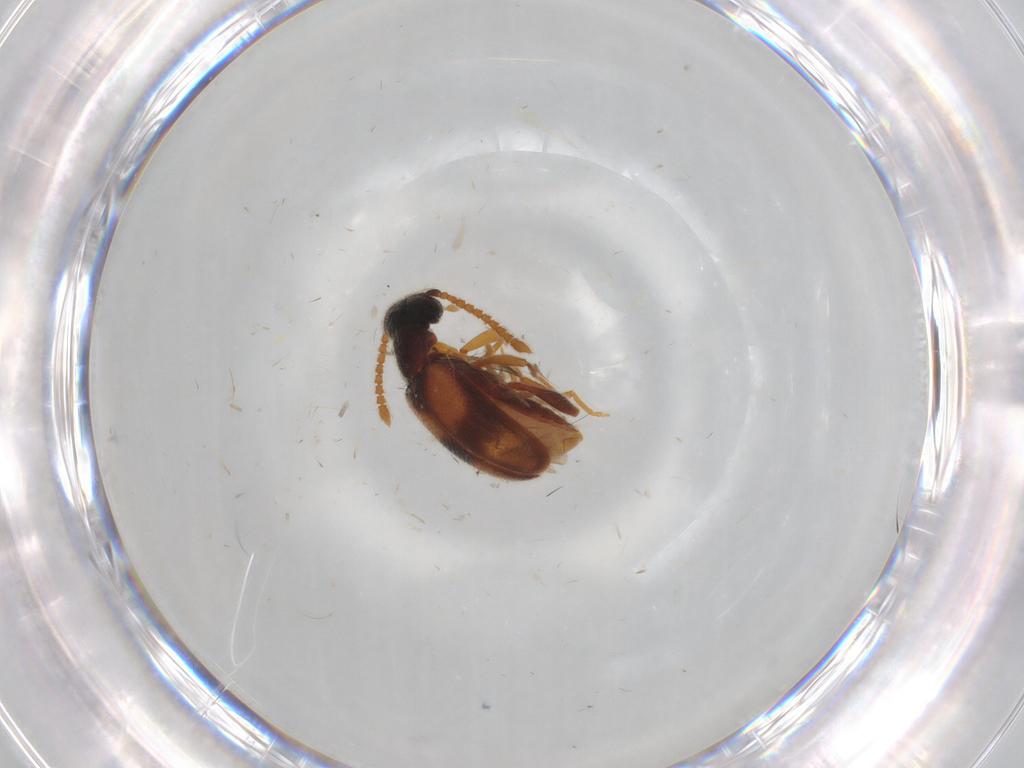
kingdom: Animalia
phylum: Arthropoda
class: Insecta
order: Coleoptera
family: Aderidae
